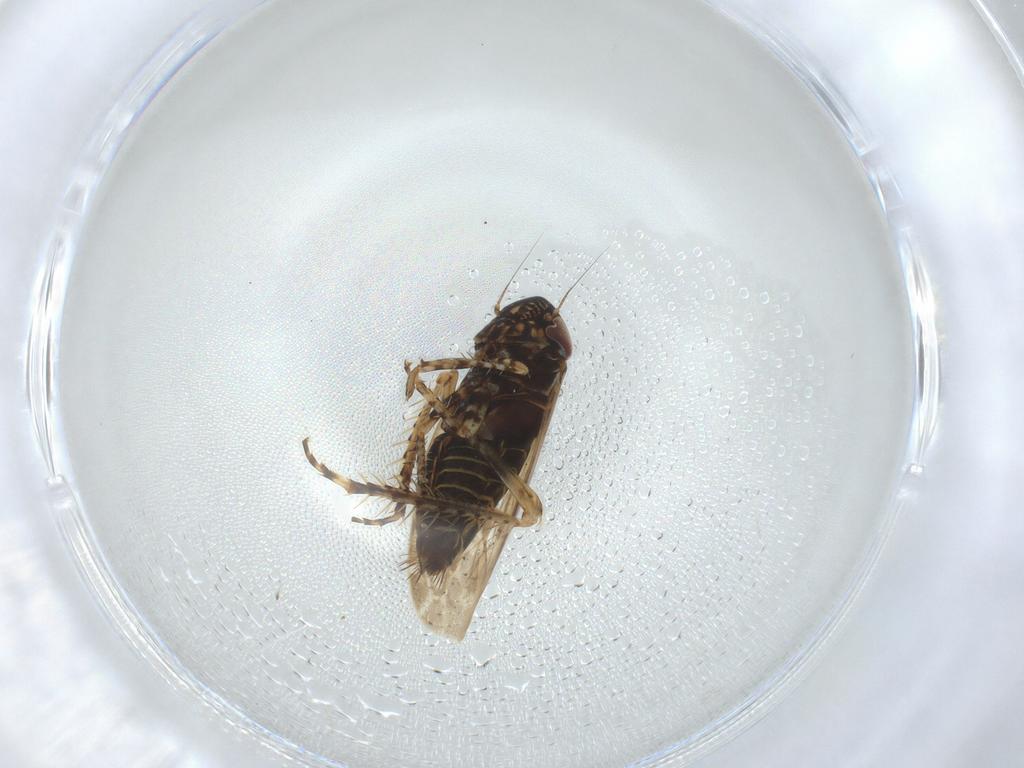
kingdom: Animalia
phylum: Arthropoda
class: Insecta
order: Hemiptera
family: Cicadellidae
